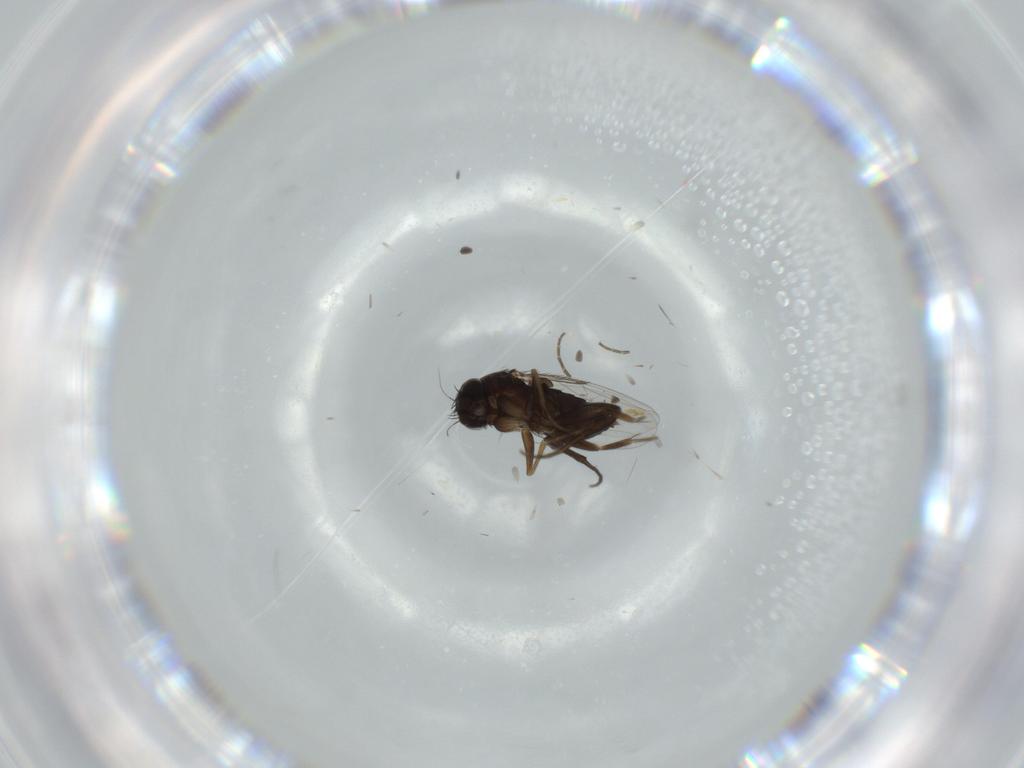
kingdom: Animalia
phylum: Arthropoda
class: Insecta
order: Diptera
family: Phoridae
